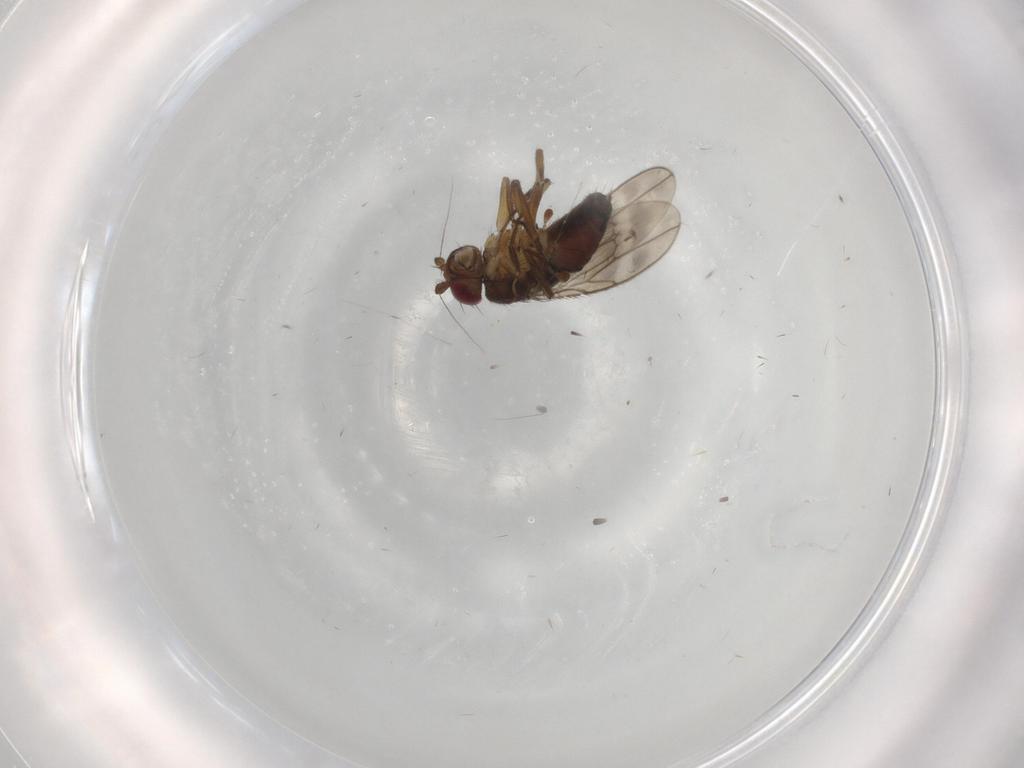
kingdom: Animalia
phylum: Arthropoda
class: Insecta
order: Diptera
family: Sphaeroceridae
